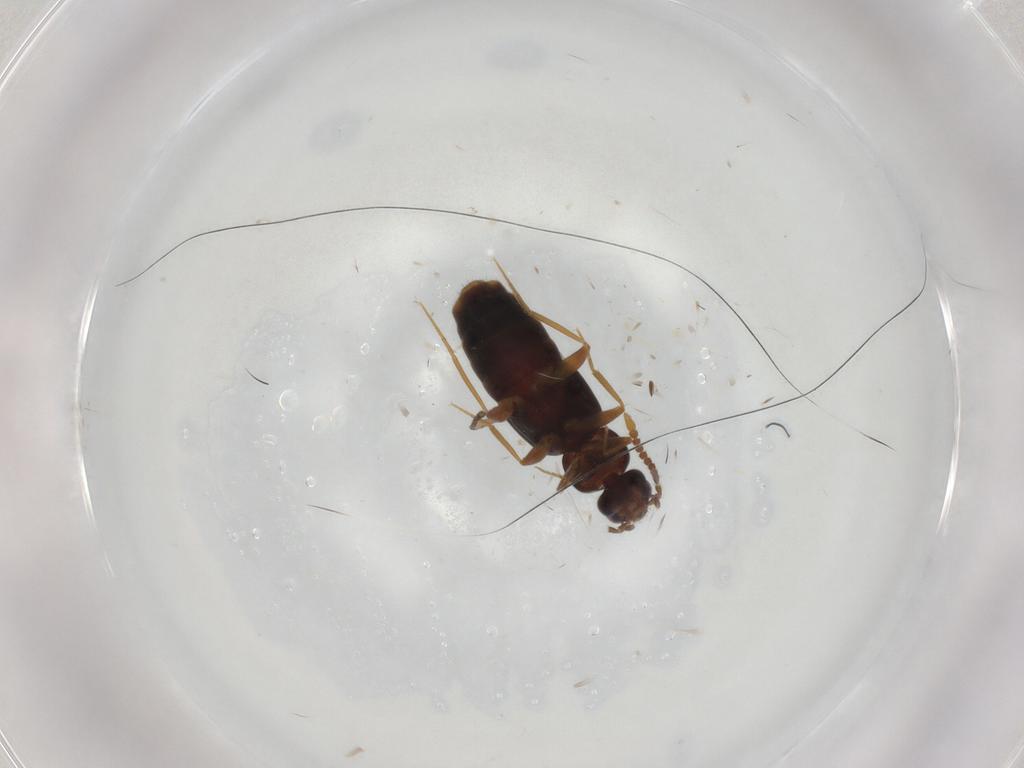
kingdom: Animalia
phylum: Arthropoda
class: Insecta
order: Coleoptera
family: Staphylinidae
